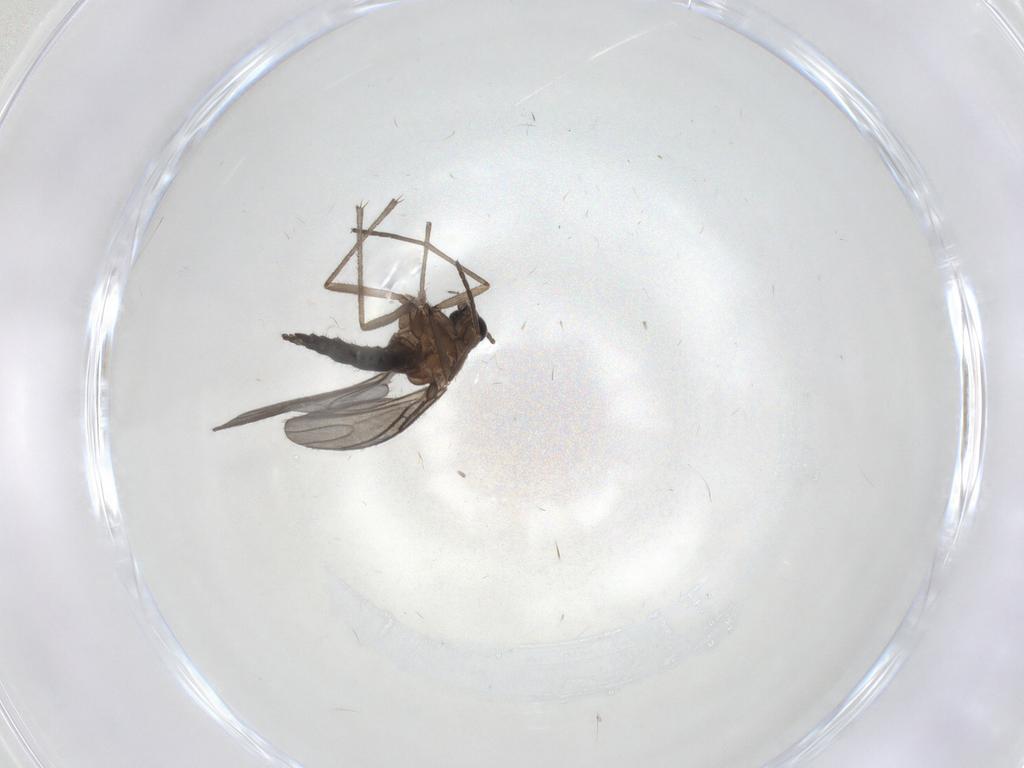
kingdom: Animalia
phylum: Arthropoda
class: Insecta
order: Diptera
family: Sciaridae
